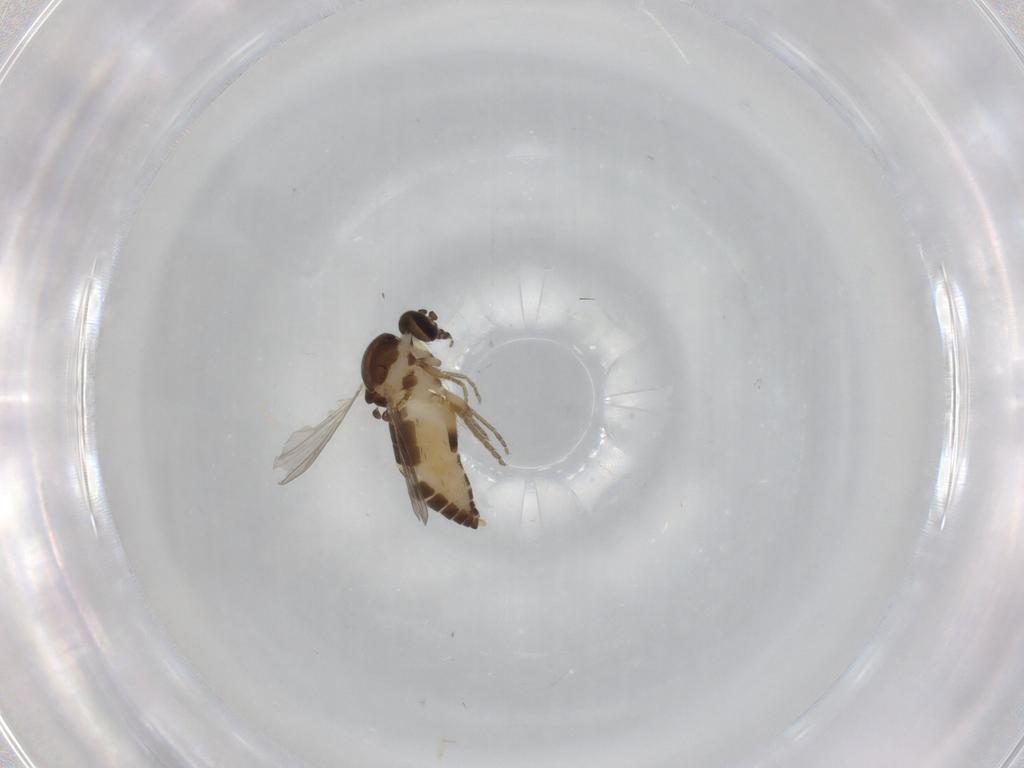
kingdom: Animalia
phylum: Arthropoda
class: Insecta
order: Diptera
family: Ceratopogonidae
